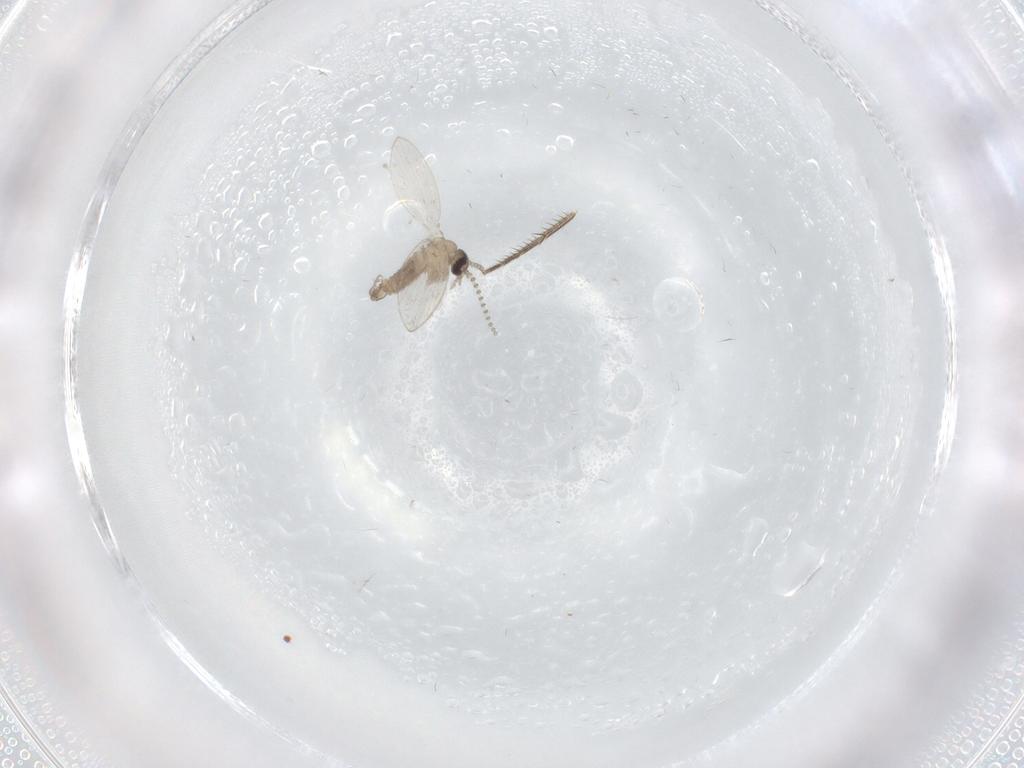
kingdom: Animalia
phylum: Arthropoda
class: Insecta
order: Diptera
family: Psychodidae
